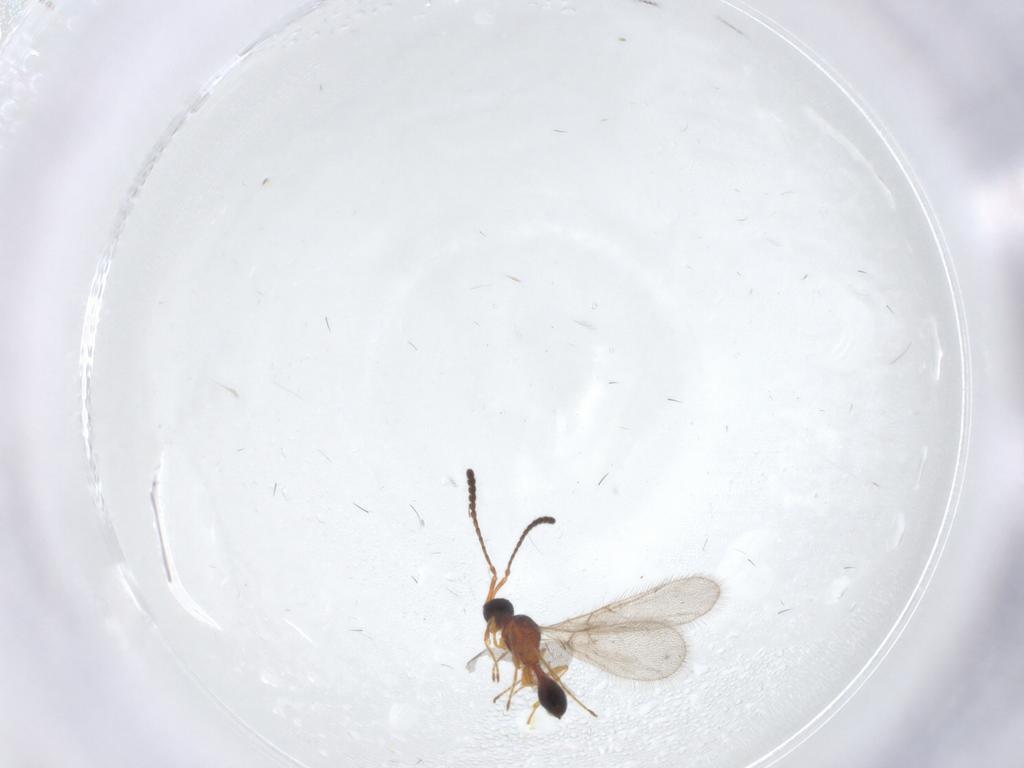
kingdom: Animalia
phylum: Arthropoda
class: Insecta
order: Hymenoptera
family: Diapriidae
